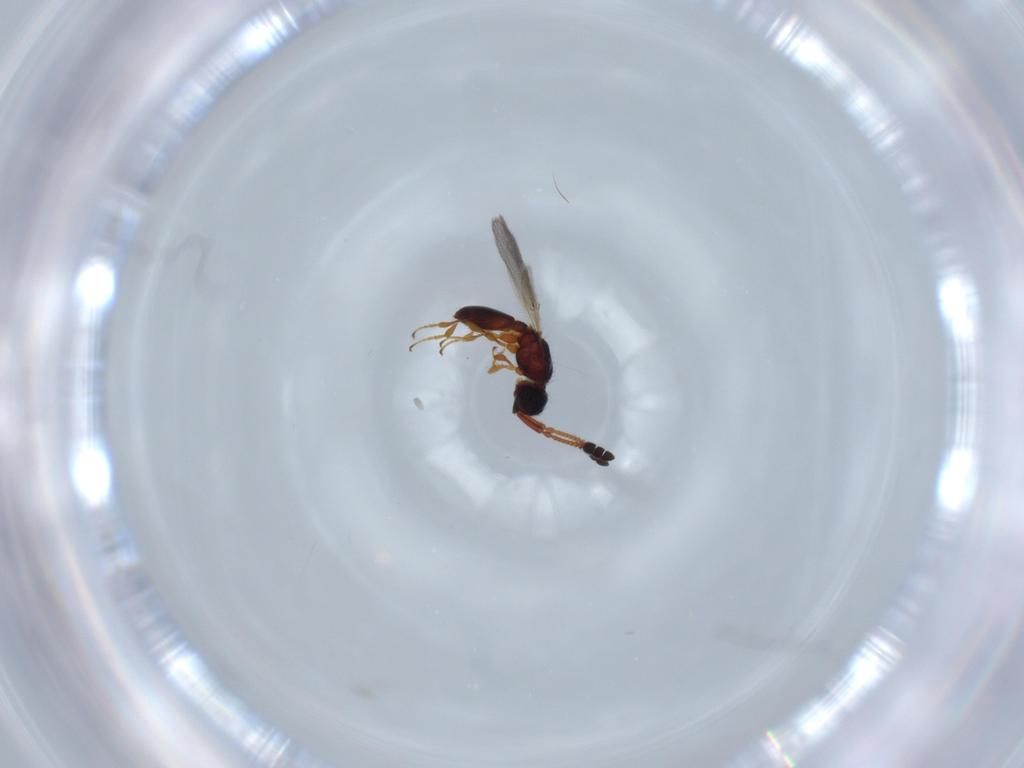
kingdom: Animalia
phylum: Arthropoda
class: Insecta
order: Hymenoptera
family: Diapriidae
